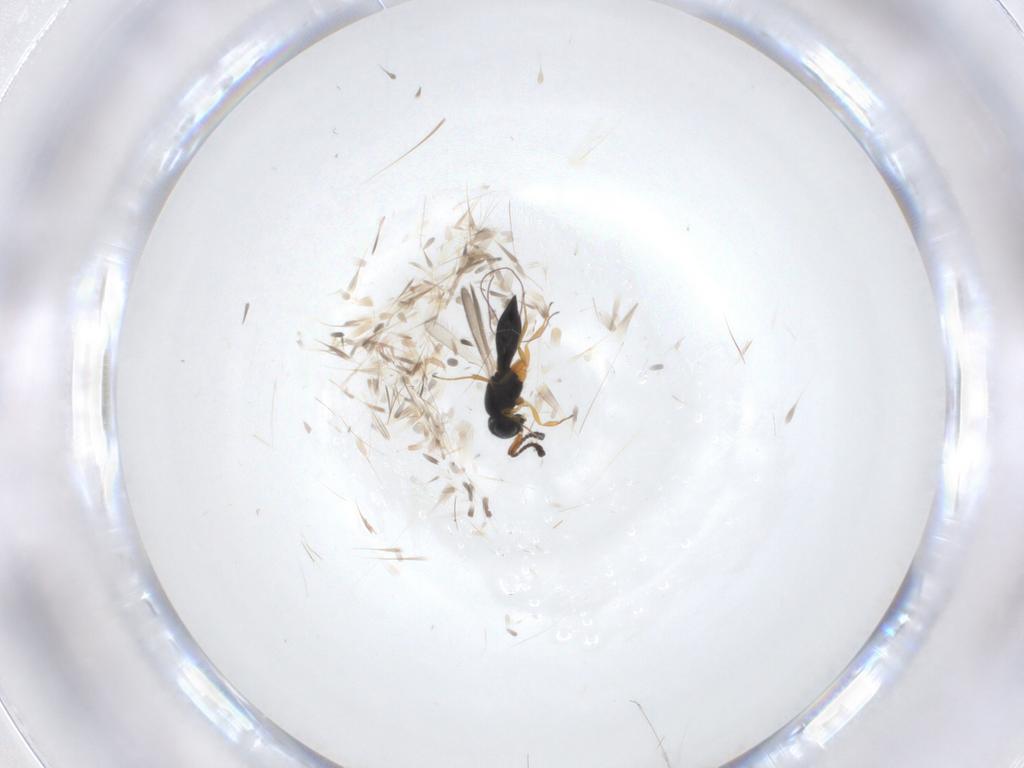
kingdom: Animalia
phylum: Arthropoda
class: Insecta
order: Hymenoptera
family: Scelionidae
